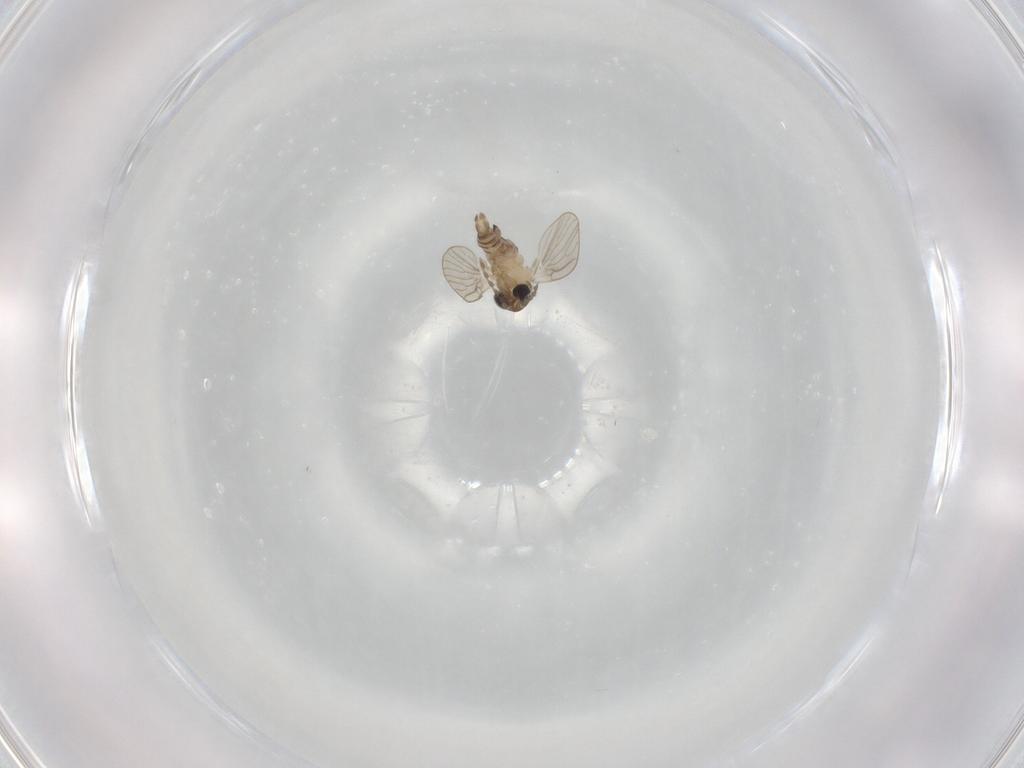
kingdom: Animalia
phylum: Arthropoda
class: Insecta
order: Diptera
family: Psychodidae
